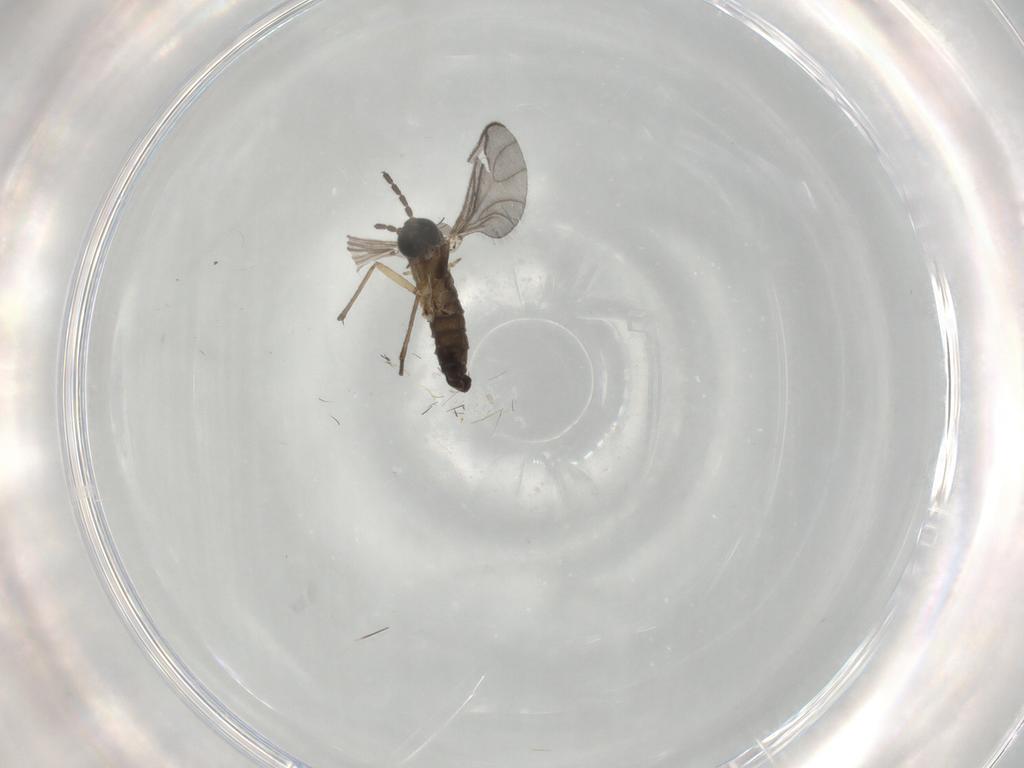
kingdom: Animalia
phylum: Arthropoda
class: Insecta
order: Diptera
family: Sciaridae
